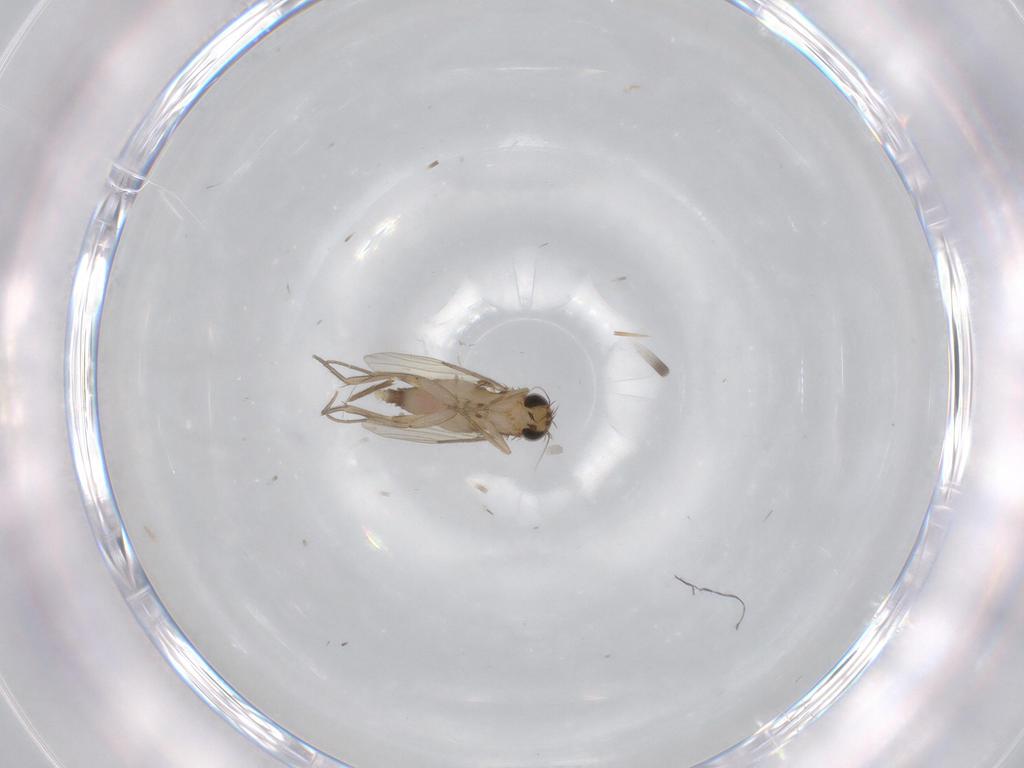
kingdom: Animalia
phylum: Arthropoda
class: Insecta
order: Diptera
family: Phoridae
